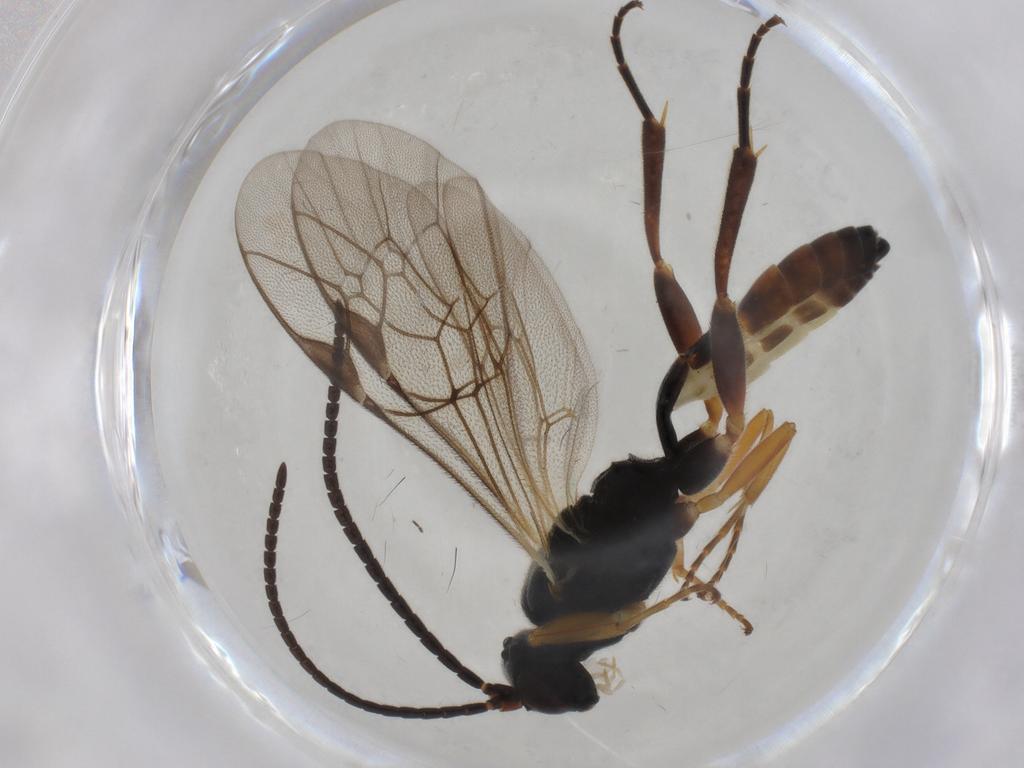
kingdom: Animalia
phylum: Arthropoda
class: Insecta
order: Hymenoptera
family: Ichneumonidae
